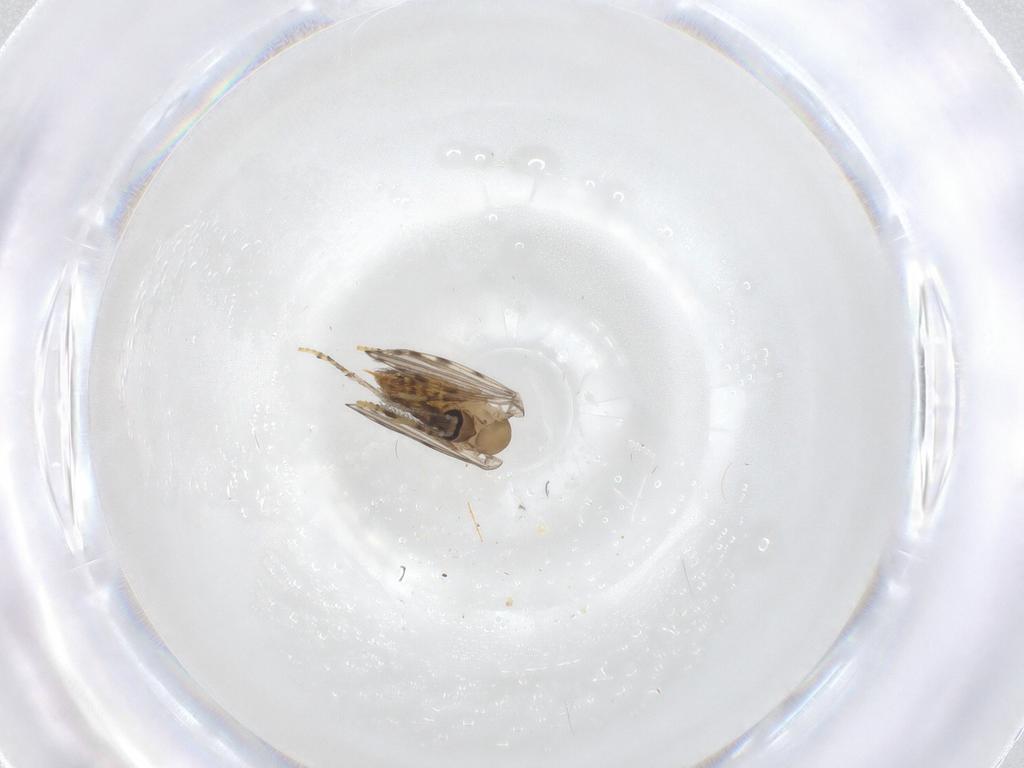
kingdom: Animalia
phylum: Arthropoda
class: Insecta
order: Diptera
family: Psychodidae
